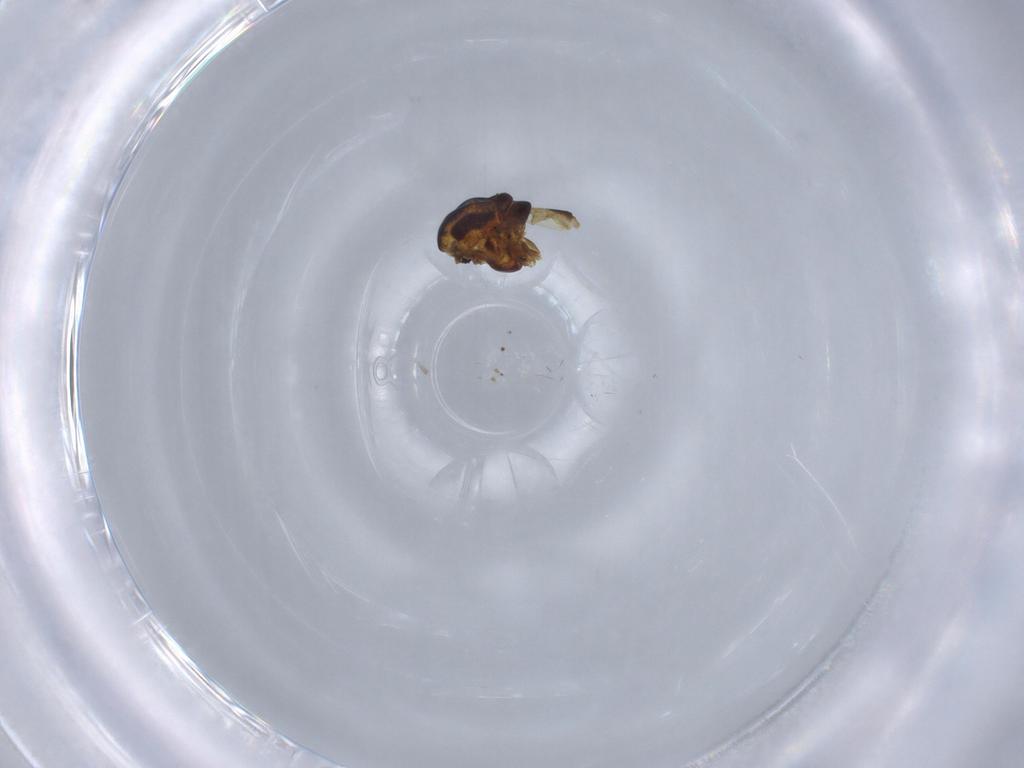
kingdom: Animalia
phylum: Arthropoda
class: Insecta
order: Diptera
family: Chironomidae
